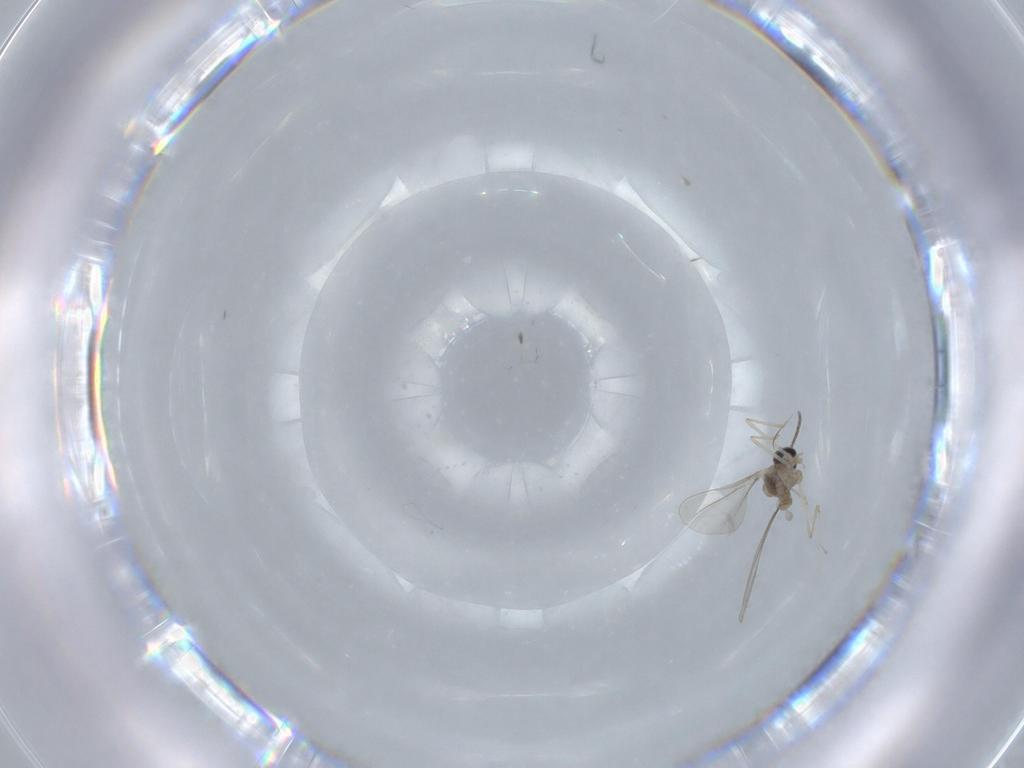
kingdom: Animalia
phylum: Arthropoda
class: Insecta
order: Diptera
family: Cecidomyiidae
